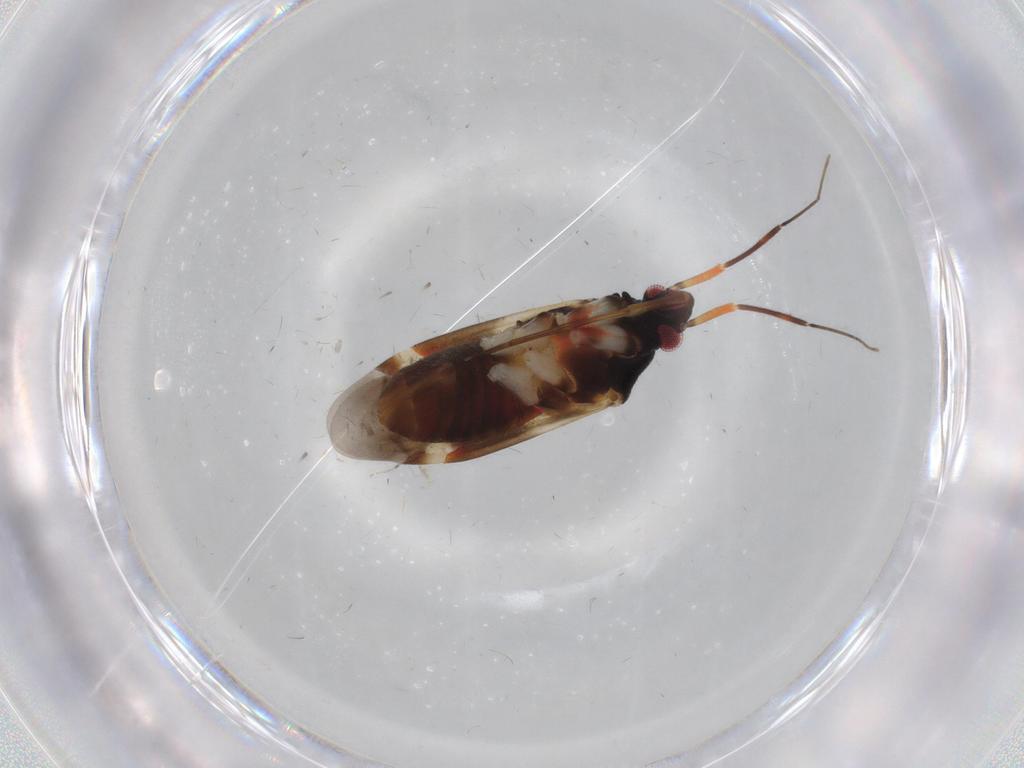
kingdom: Animalia
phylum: Arthropoda
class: Insecta
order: Hemiptera
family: Miridae
